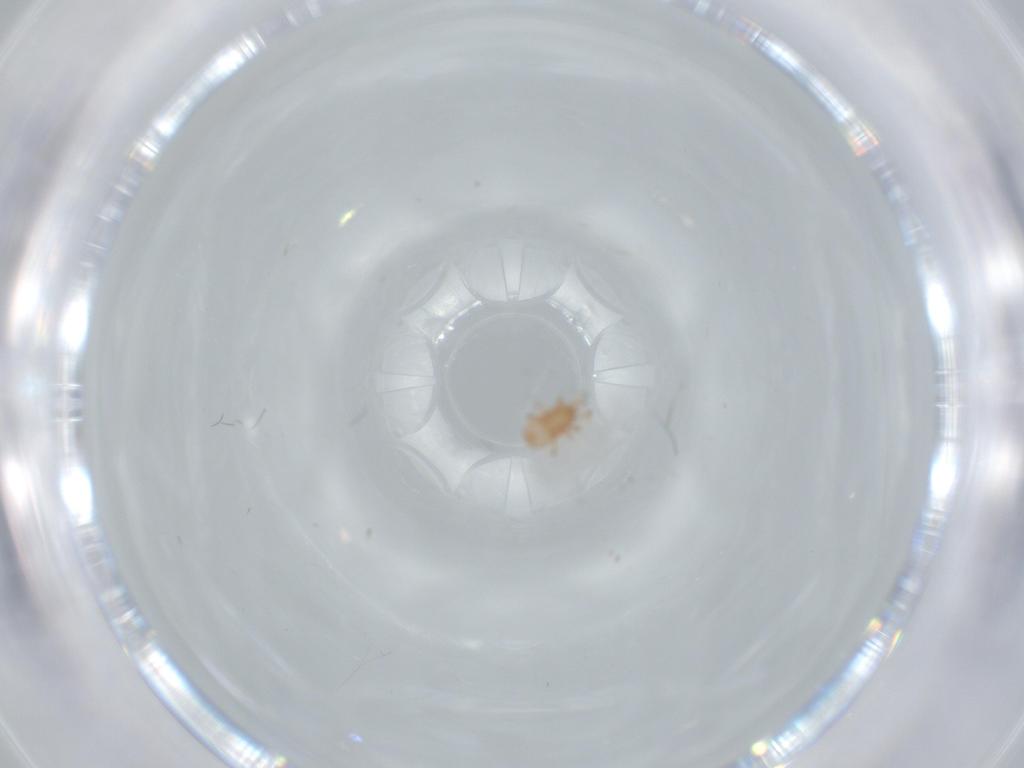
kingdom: Animalia
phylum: Arthropoda
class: Arachnida
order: Mesostigmata
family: Ascidae
